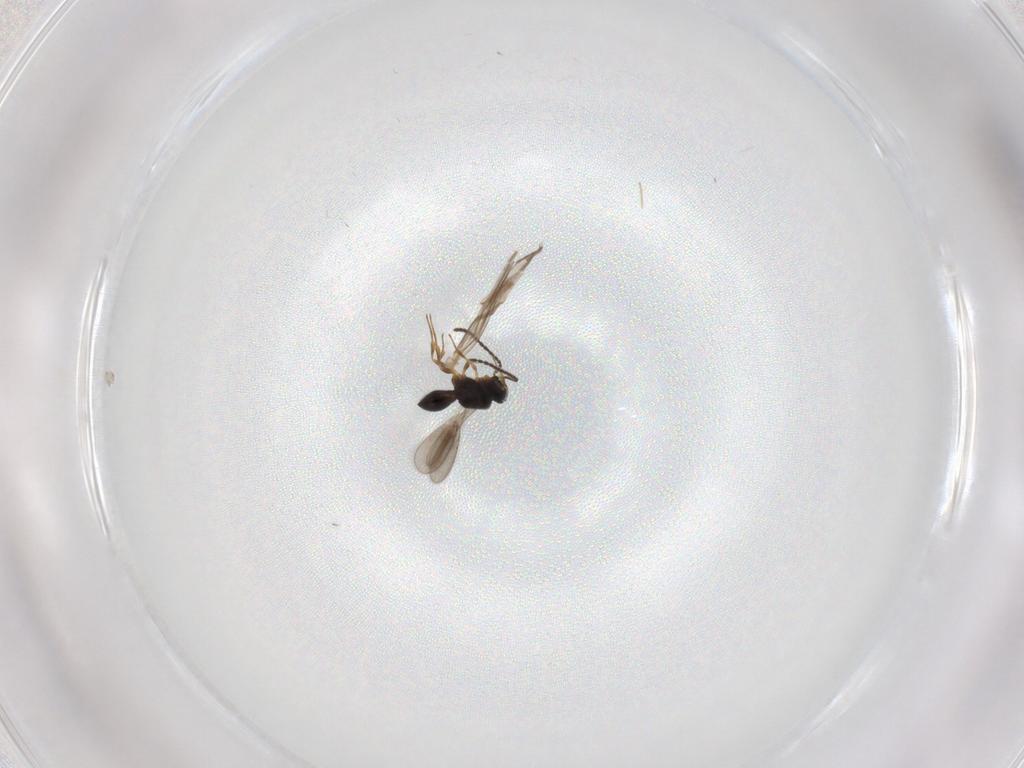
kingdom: Animalia
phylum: Arthropoda
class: Insecta
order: Hymenoptera
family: Scelionidae
